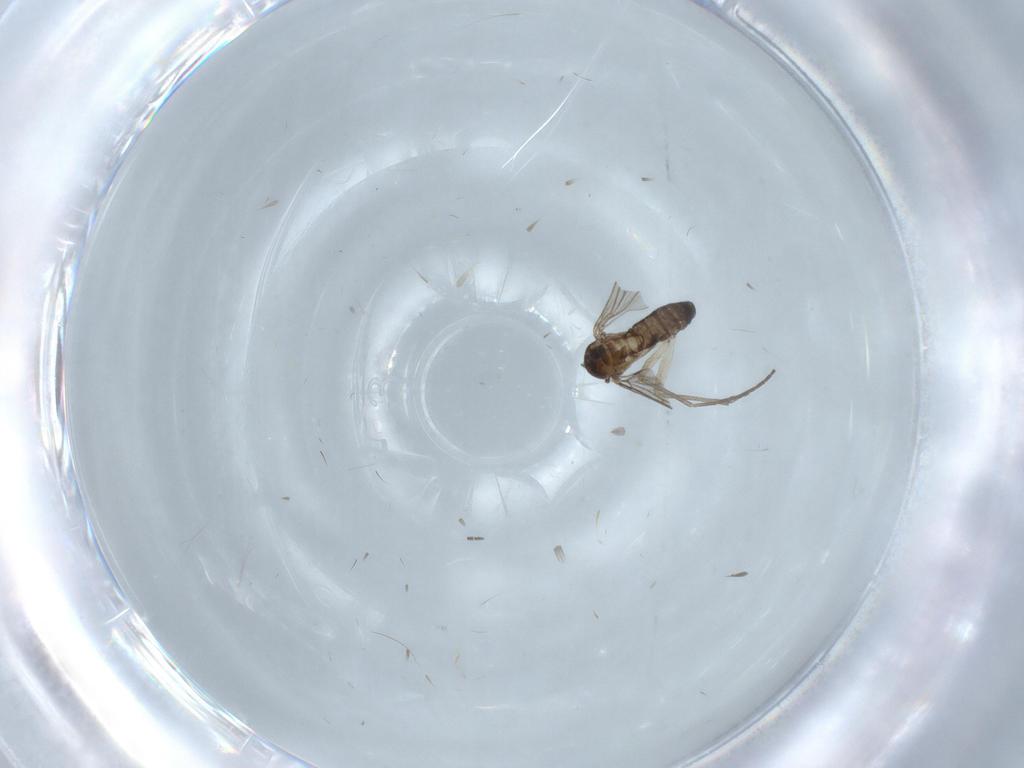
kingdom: Animalia
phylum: Arthropoda
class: Insecta
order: Diptera
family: Sciaridae
